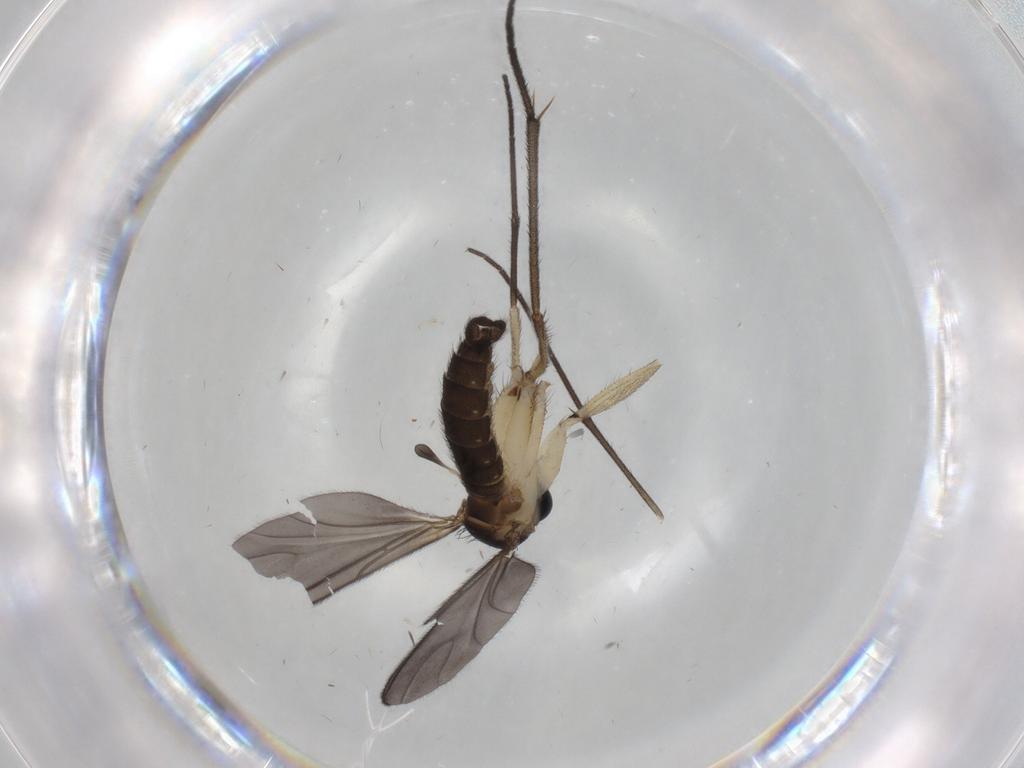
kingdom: Animalia
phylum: Arthropoda
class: Insecta
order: Diptera
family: Sciaridae
